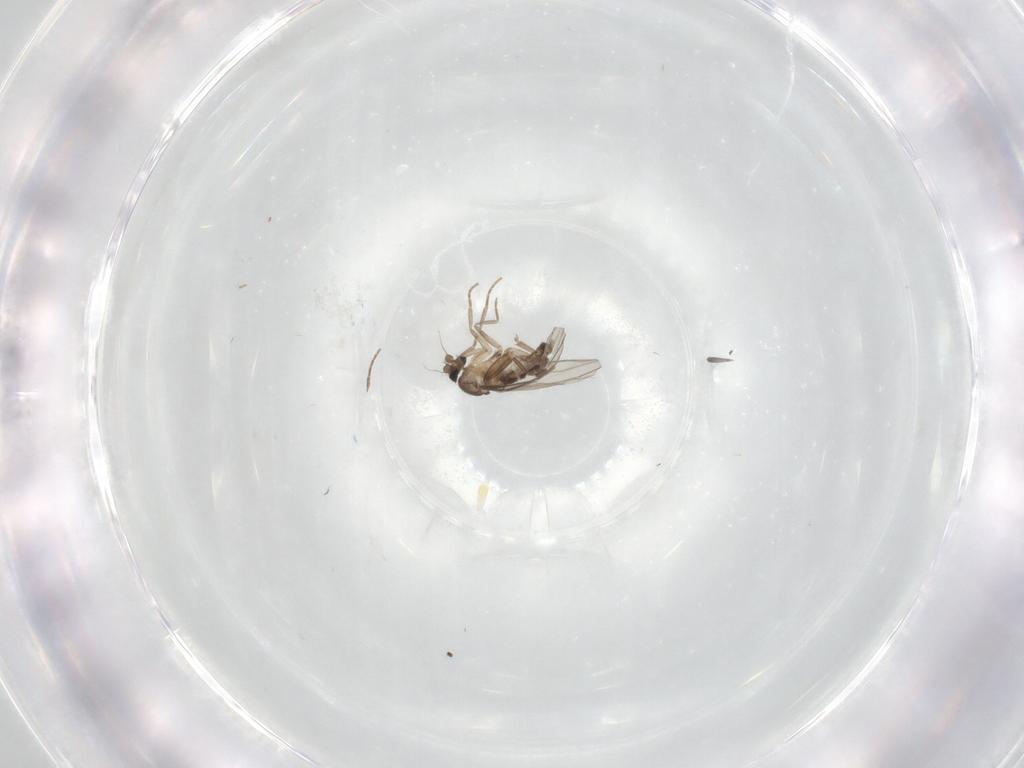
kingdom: Animalia
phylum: Arthropoda
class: Insecta
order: Diptera
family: Phoridae
